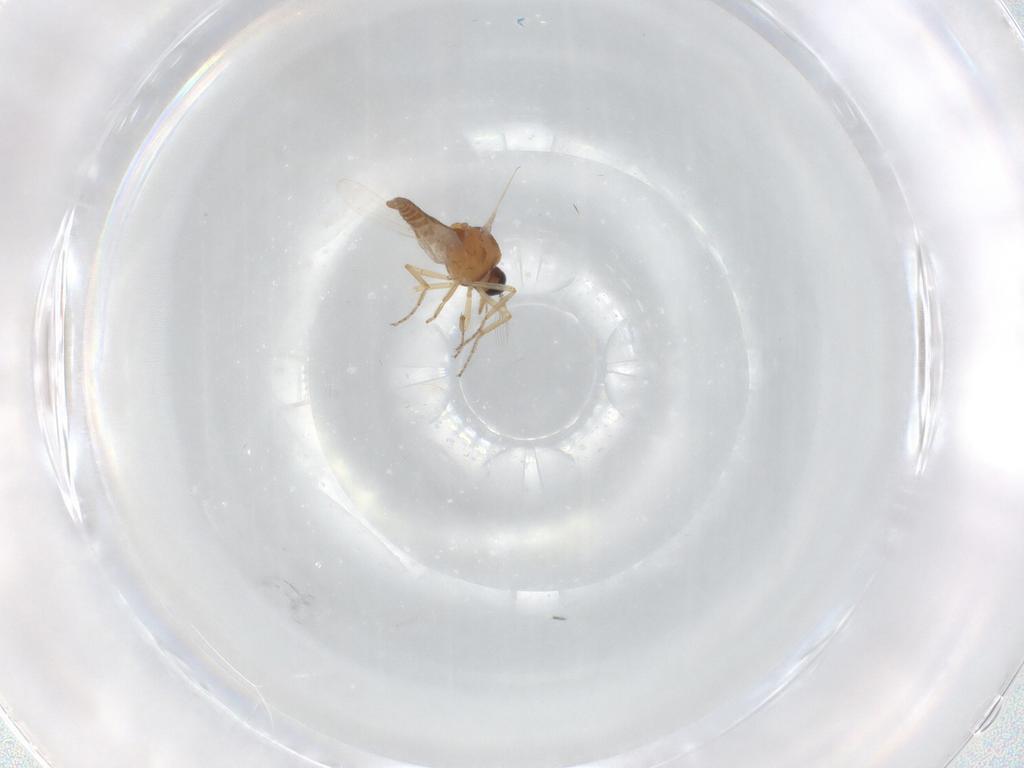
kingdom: Animalia
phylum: Arthropoda
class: Insecta
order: Diptera
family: Ceratopogonidae
